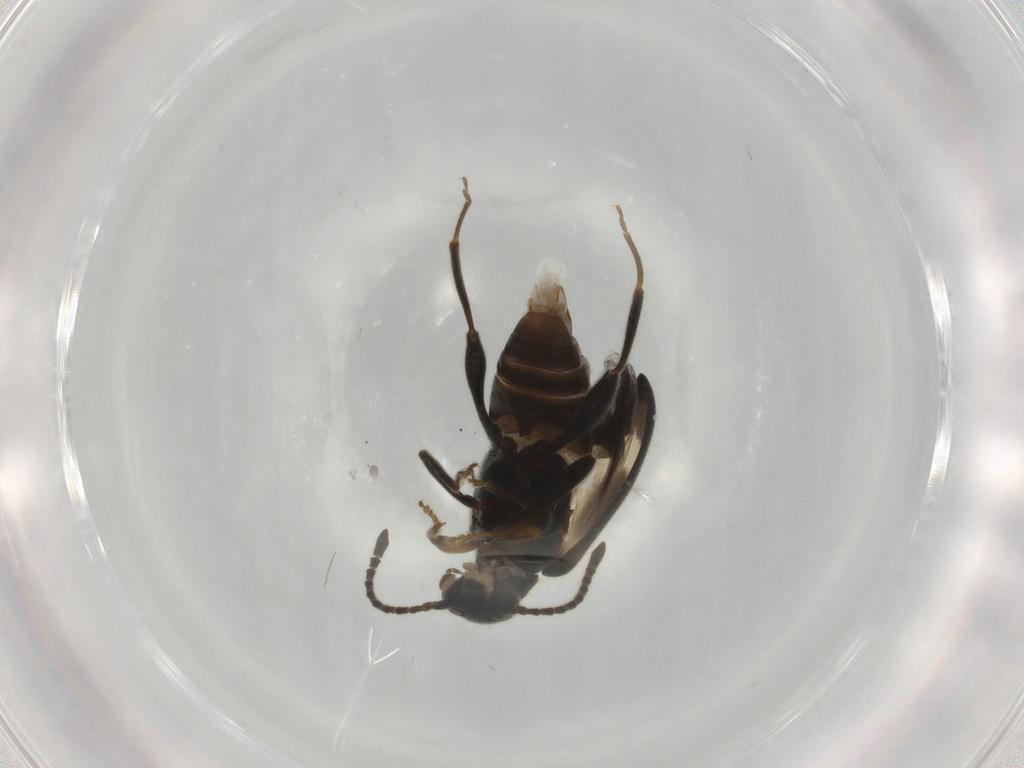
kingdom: Animalia
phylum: Arthropoda
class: Insecta
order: Coleoptera
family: Aderidae
